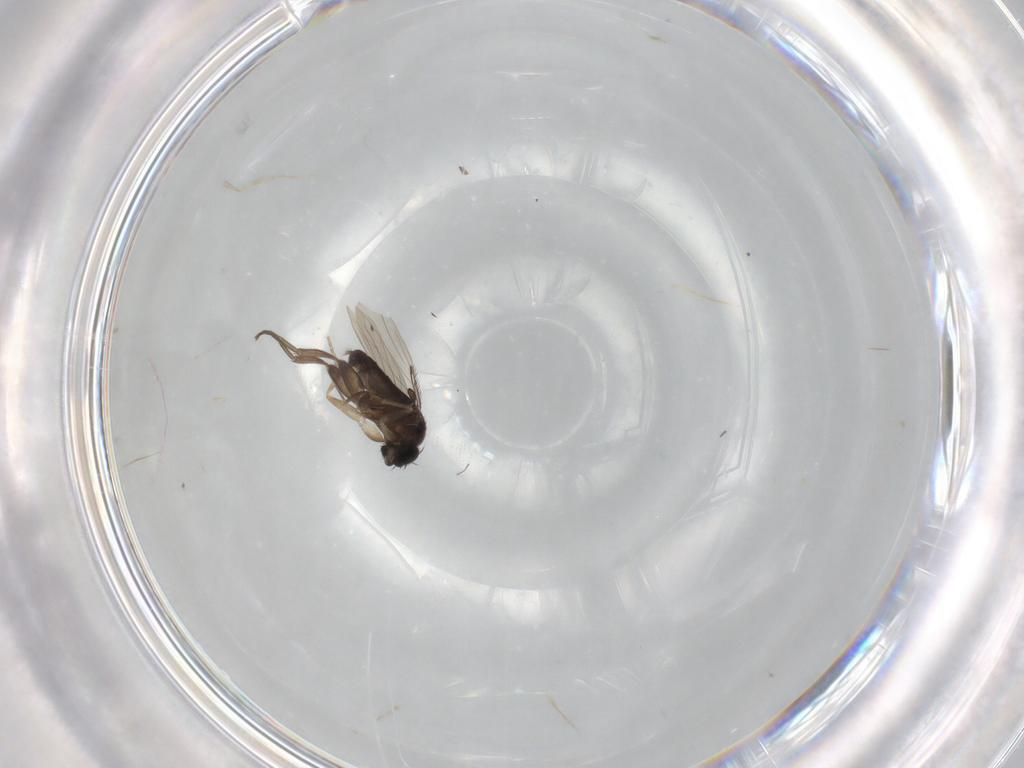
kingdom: Animalia
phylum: Arthropoda
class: Insecta
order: Diptera
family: Phoridae
